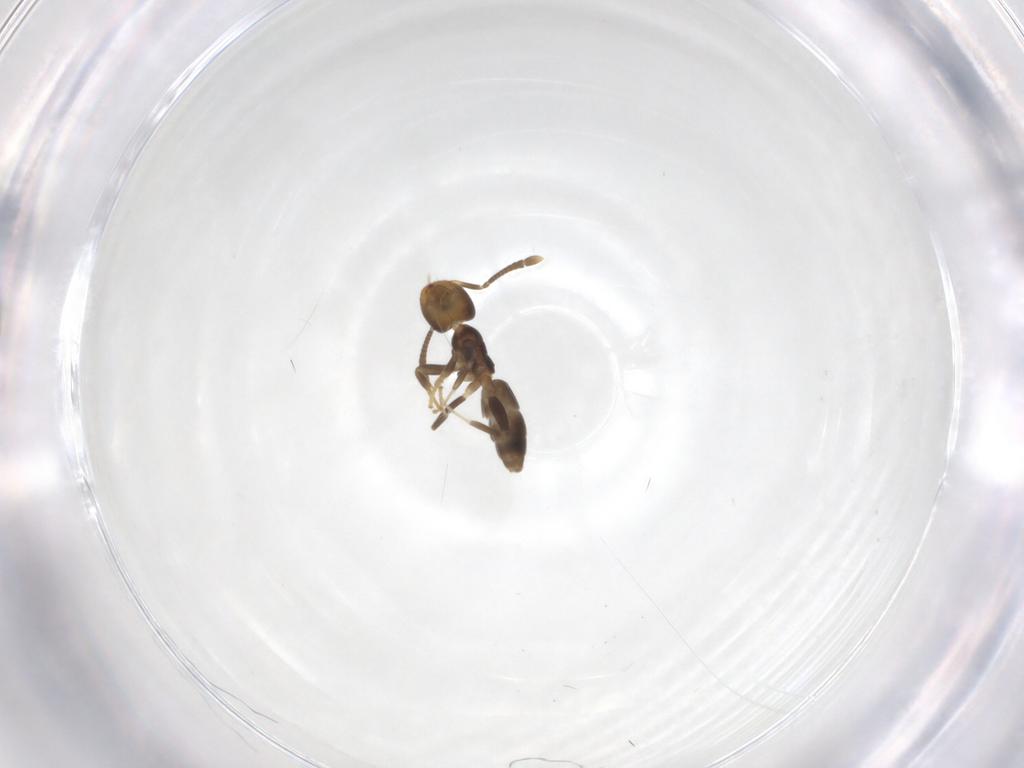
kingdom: Animalia
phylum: Arthropoda
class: Insecta
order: Hymenoptera
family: Formicidae
